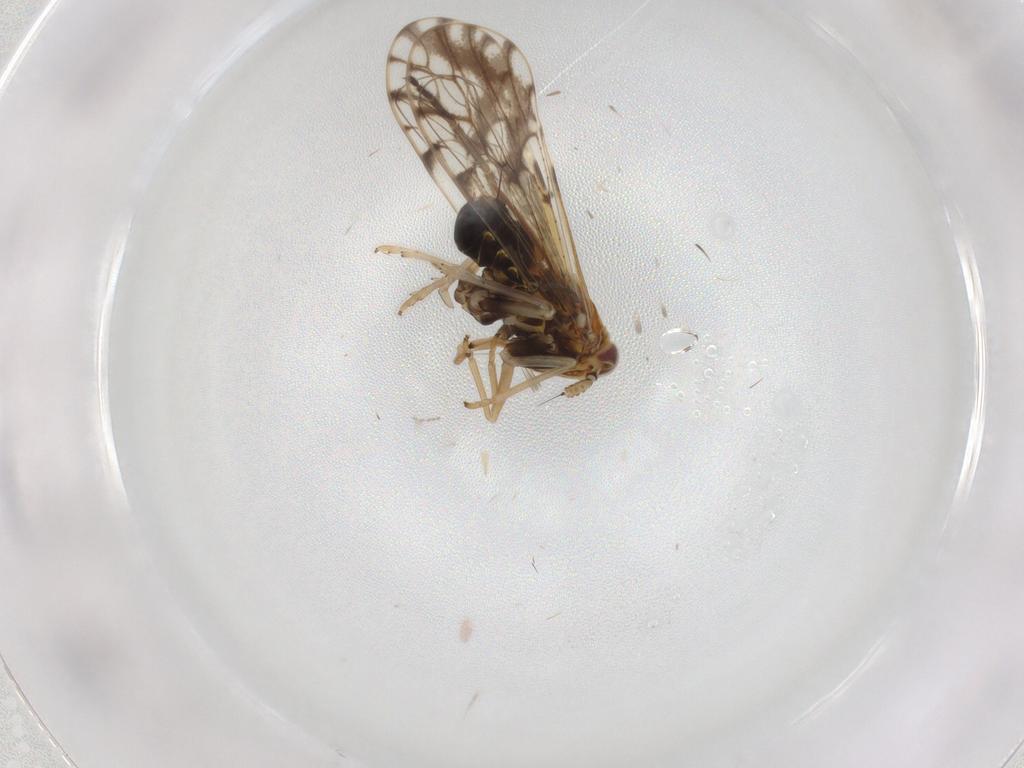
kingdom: Animalia
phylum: Arthropoda
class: Insecta
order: Hemiptera
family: Delphacidae
